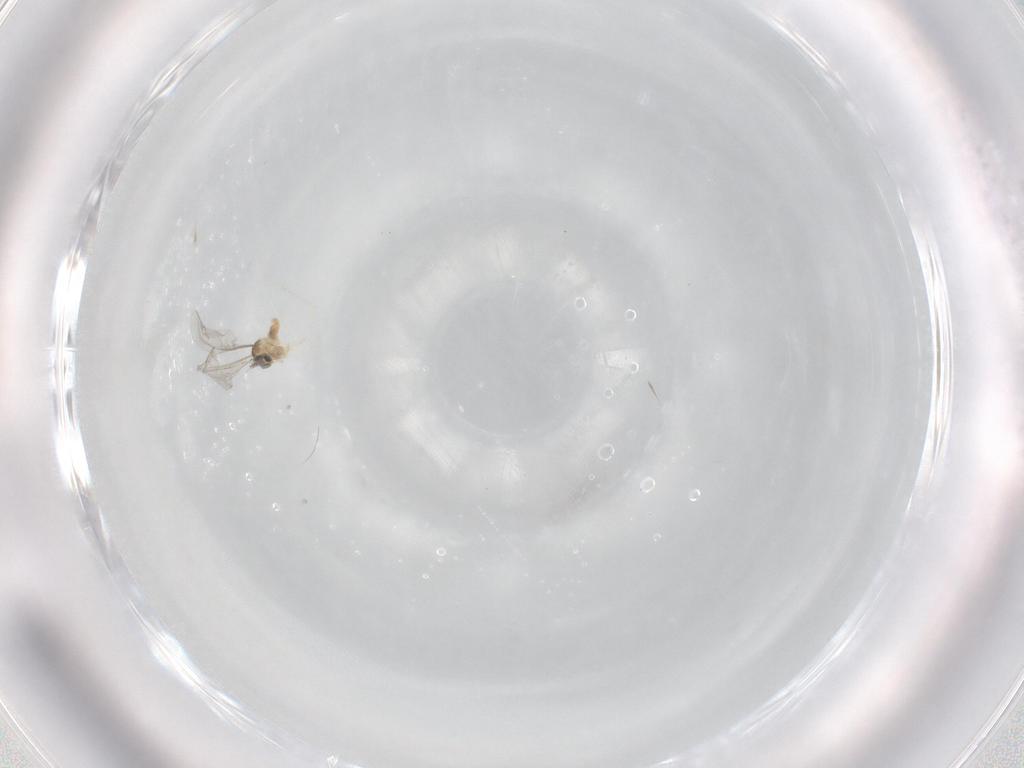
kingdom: Animalia
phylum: Arthropoda
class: Insecta
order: Diptera
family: Cecidomyiidae
